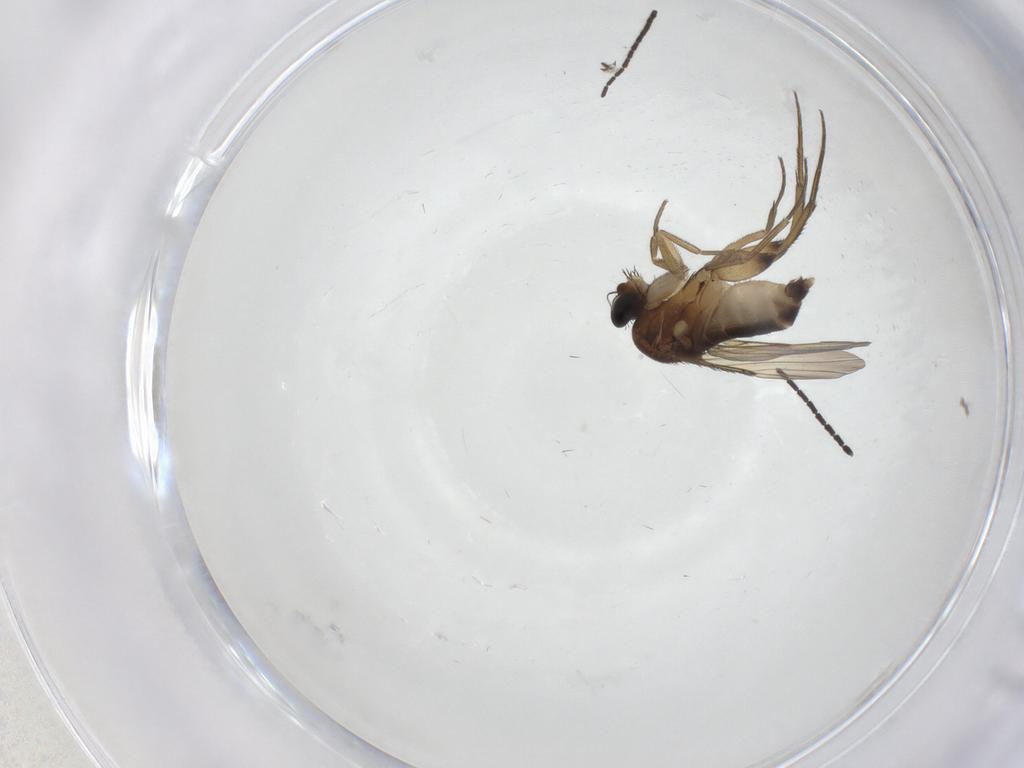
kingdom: Animalia
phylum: Arthropoda
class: Insecta
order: Diptera
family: Phoridae
